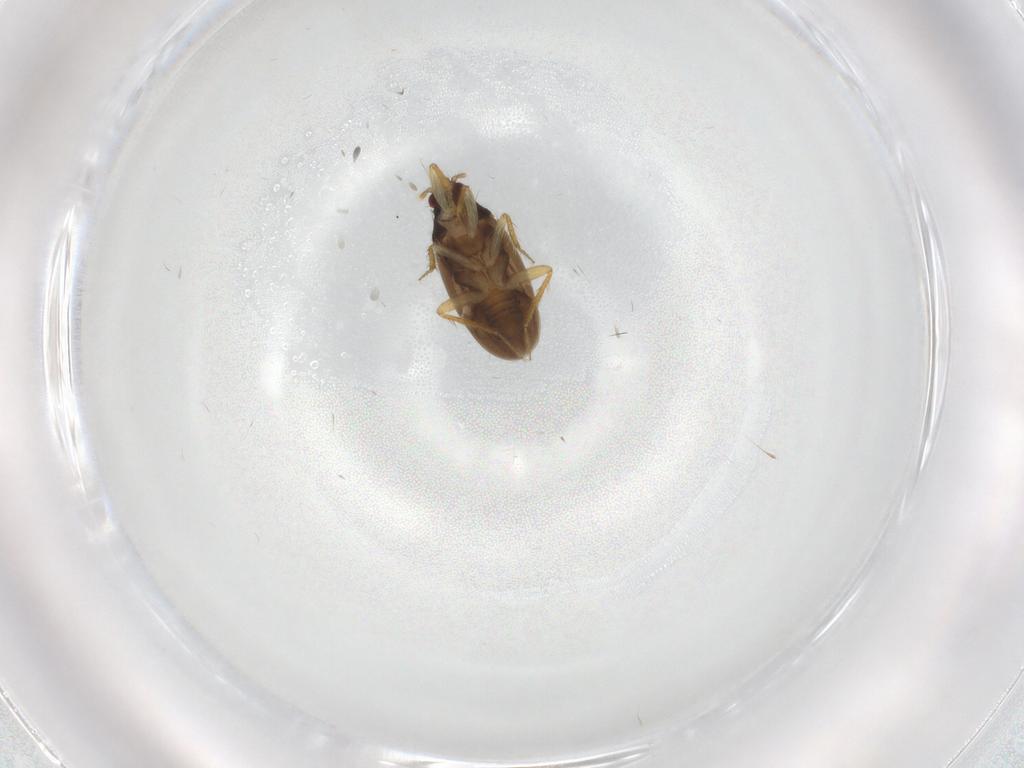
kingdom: Animalia
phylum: Arthropoda
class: Insecta
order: Hemiptera
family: Ceratocombidae
